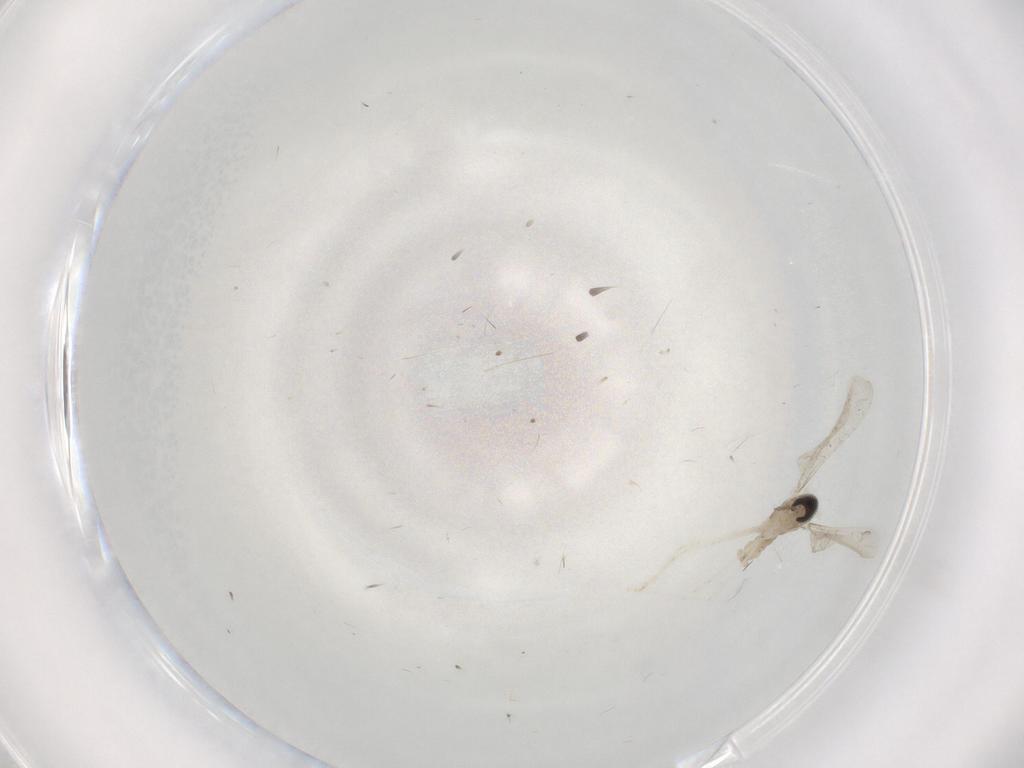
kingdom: Animalia
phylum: Arthropoda
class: Insecta
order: Diptera
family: Cecidomyiidae
